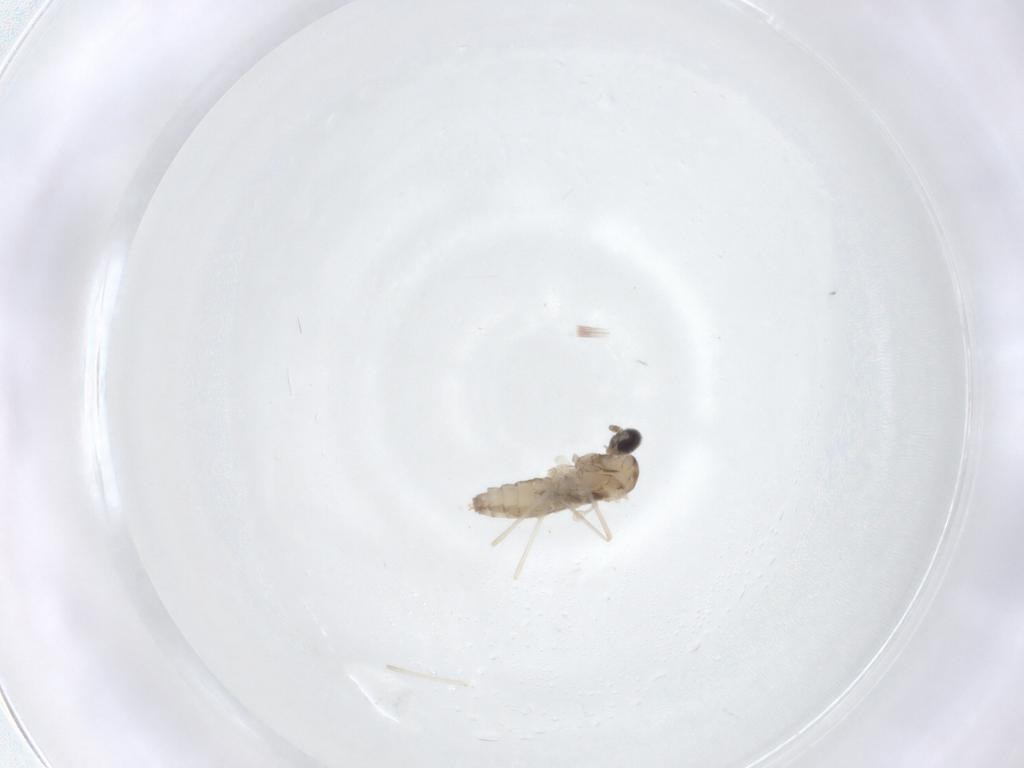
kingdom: Animalia
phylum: Arthropoda
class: Insecta
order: Diptera
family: Cecidomyiidae
